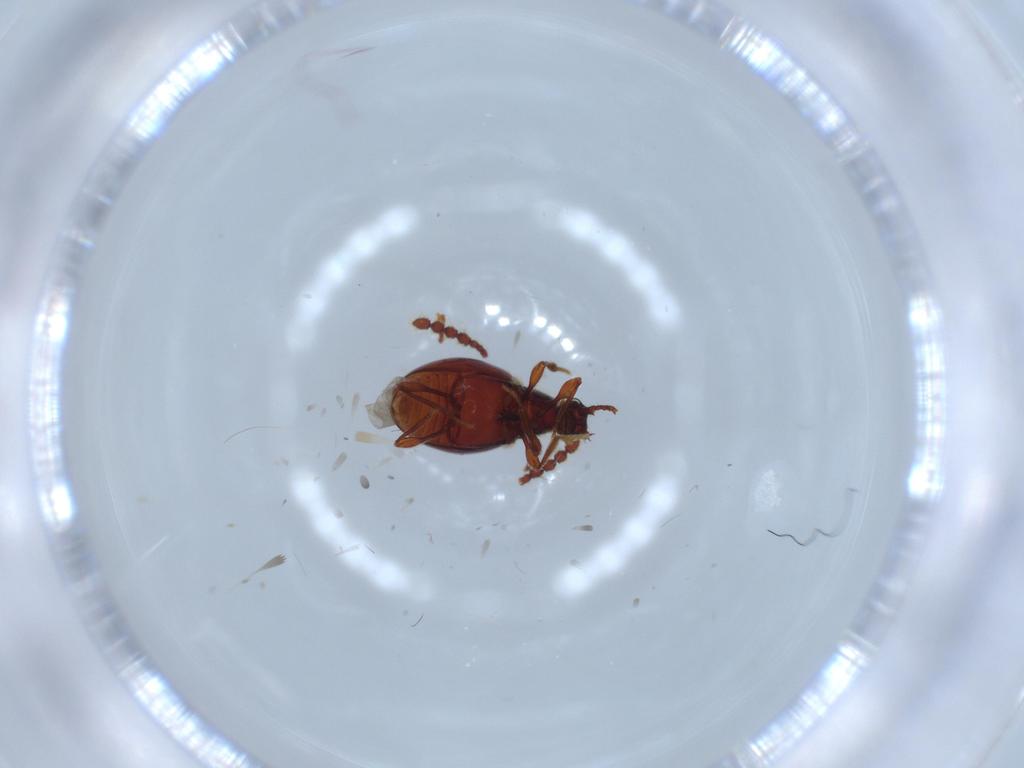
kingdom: Animalia
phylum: Arthropoda
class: Insecta
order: Coleoptera
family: Staphylinidae
